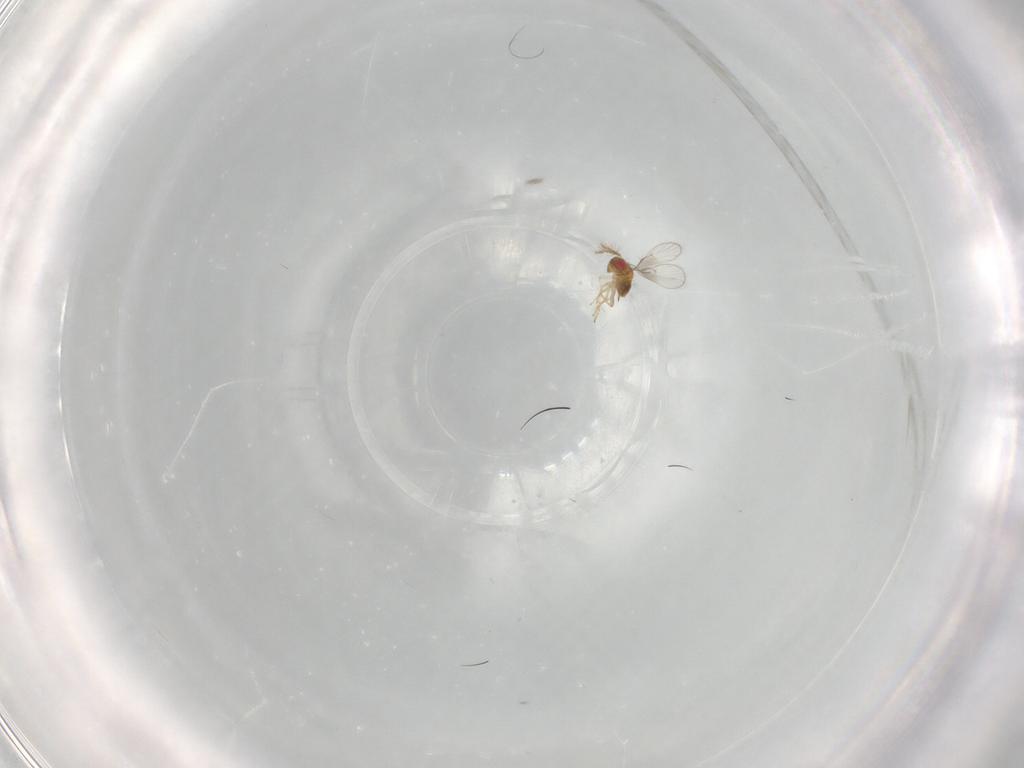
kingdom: Animalia
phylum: Arthropoda
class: Insecta
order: Hymenoptera
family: Trichogrammatidae
